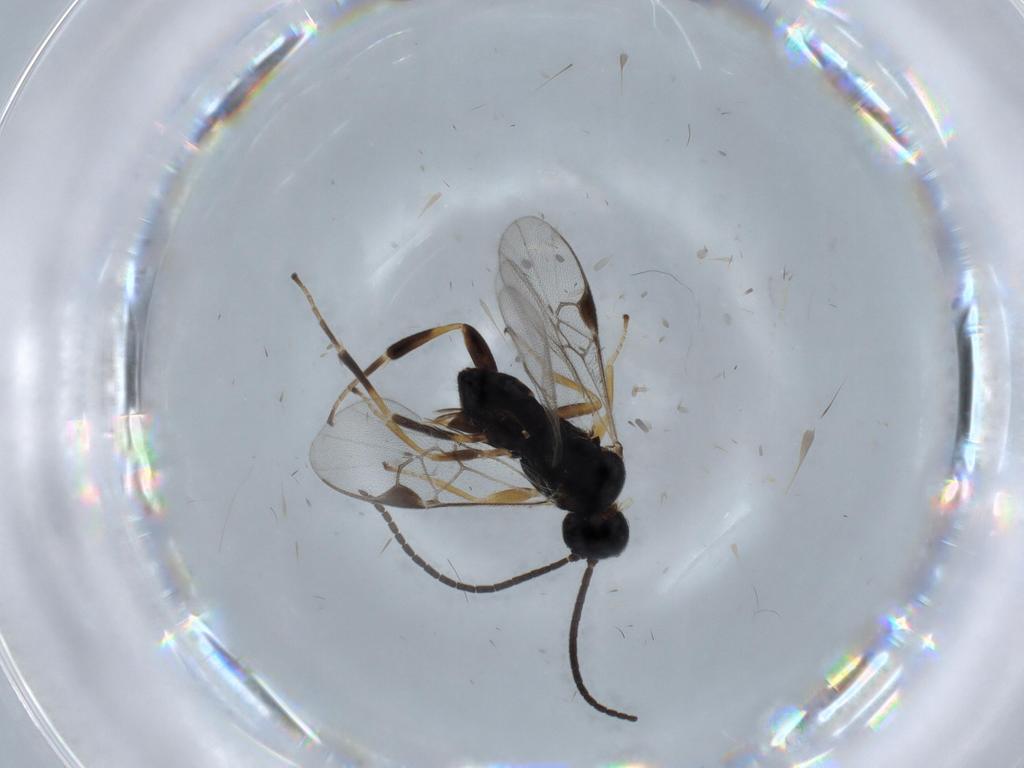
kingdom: Animalia
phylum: Arthropoda
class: Insecta
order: Hymenoptera
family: Braconidae
